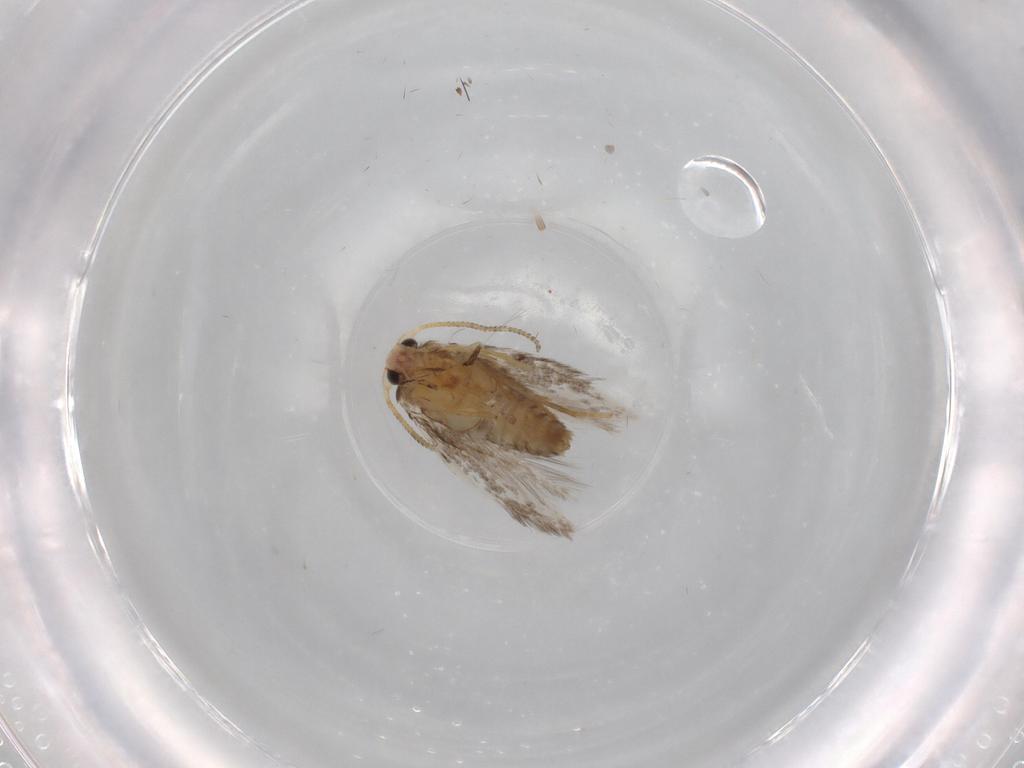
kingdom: Animalia
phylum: Arthropoda
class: Insecta
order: Lepidoptera
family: Tineidae
